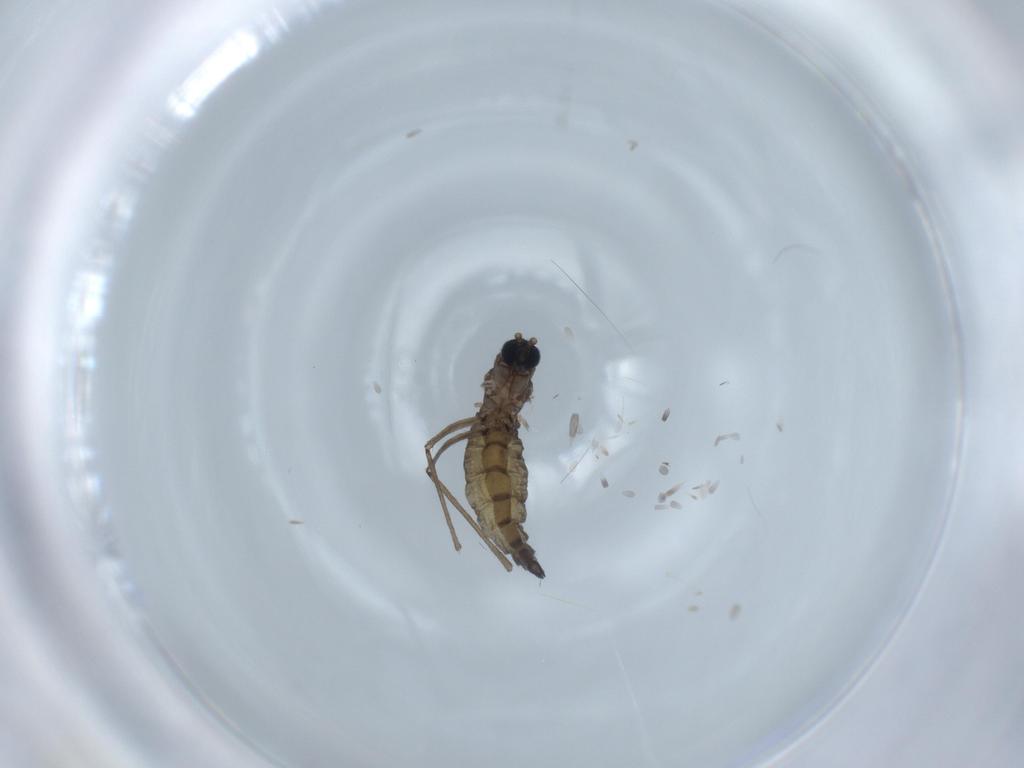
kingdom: Animalia
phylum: Arthropoda
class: Insecta
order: Diptera
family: Sciaridae
